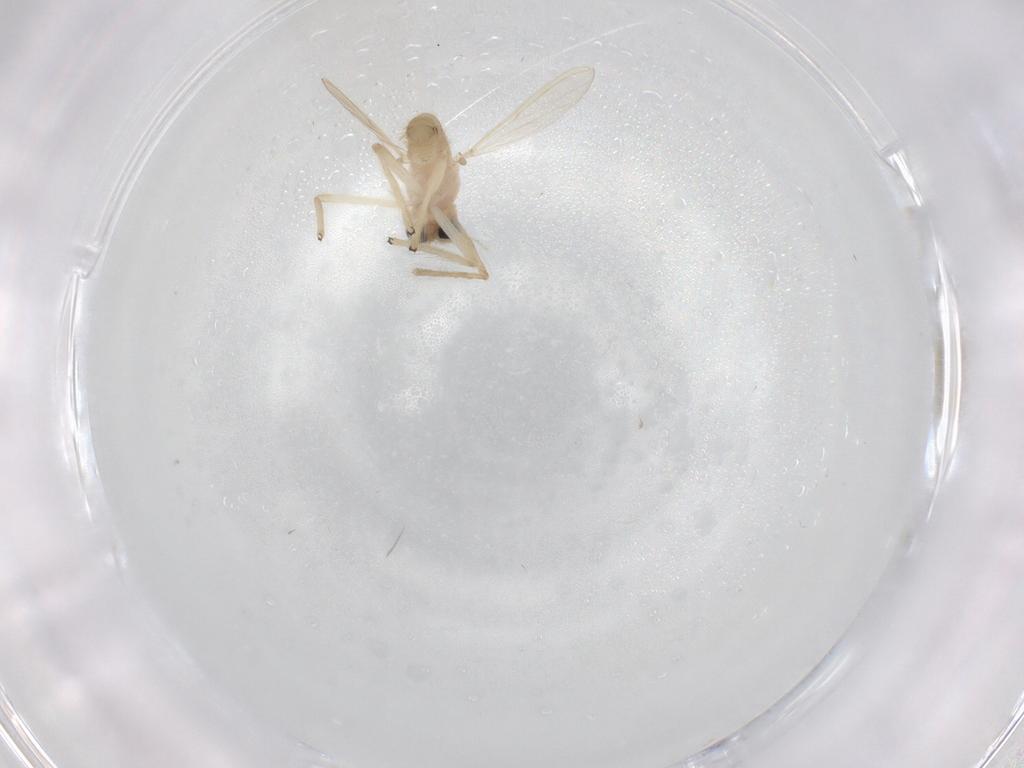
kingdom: Animalia
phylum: Arthropoda
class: Insecta
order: Diptera
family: Chironomidae
